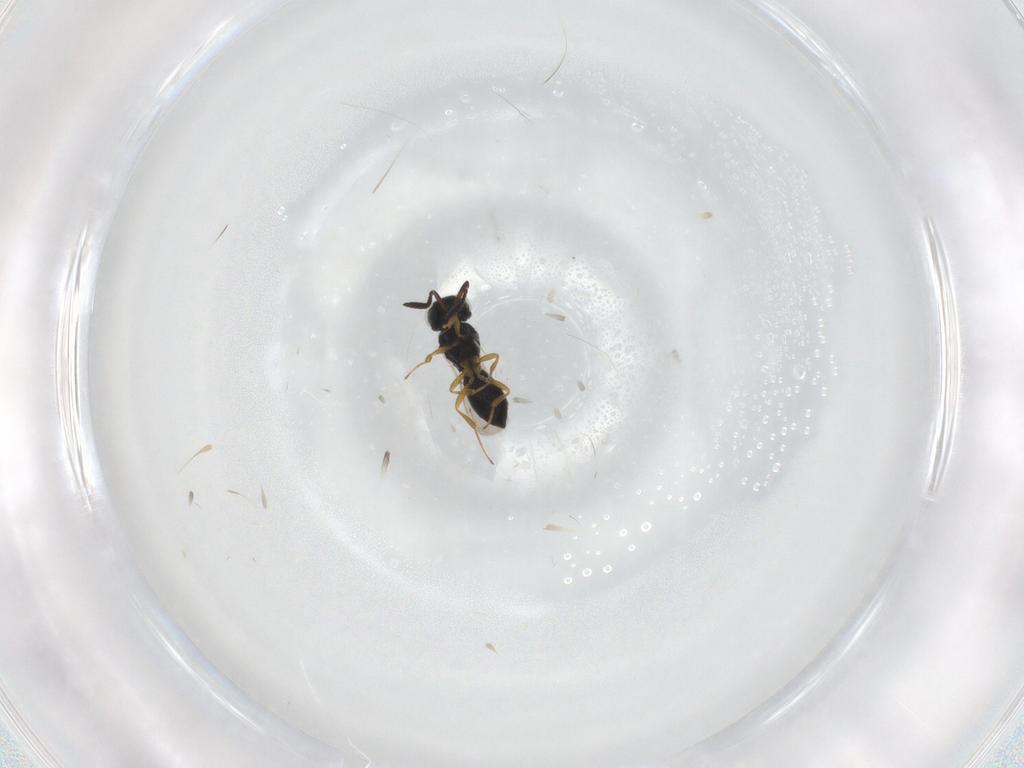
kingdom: Animalia
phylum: Arthropoda
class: Insecta
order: Hymenoptera
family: Scelionidae
